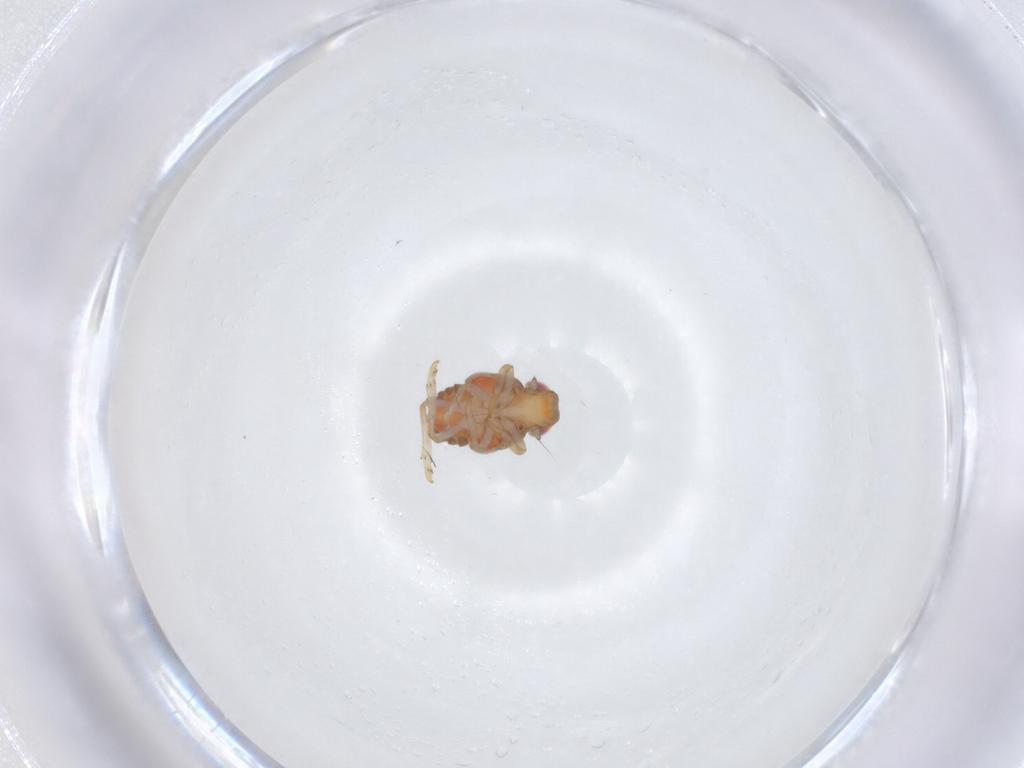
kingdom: Animalia
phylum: Arthropoda
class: Insecta
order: Hemiptera
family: Issidae
